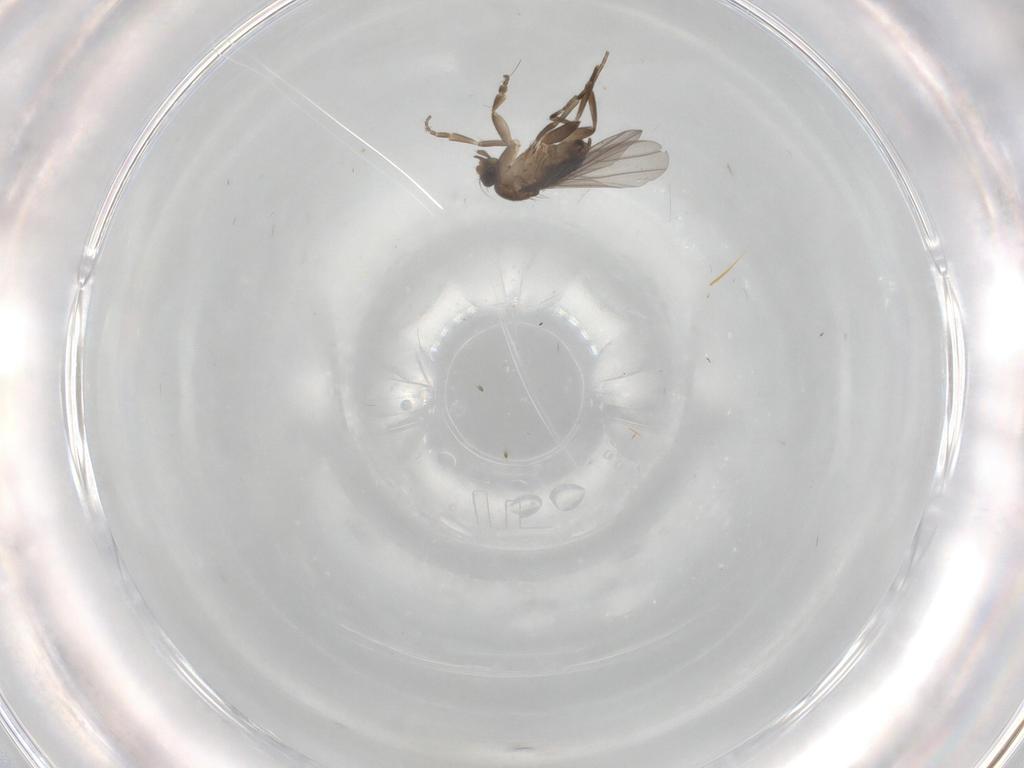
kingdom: Animalia
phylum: Arthropoda
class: Insecta
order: Diptera
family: Phoridae
